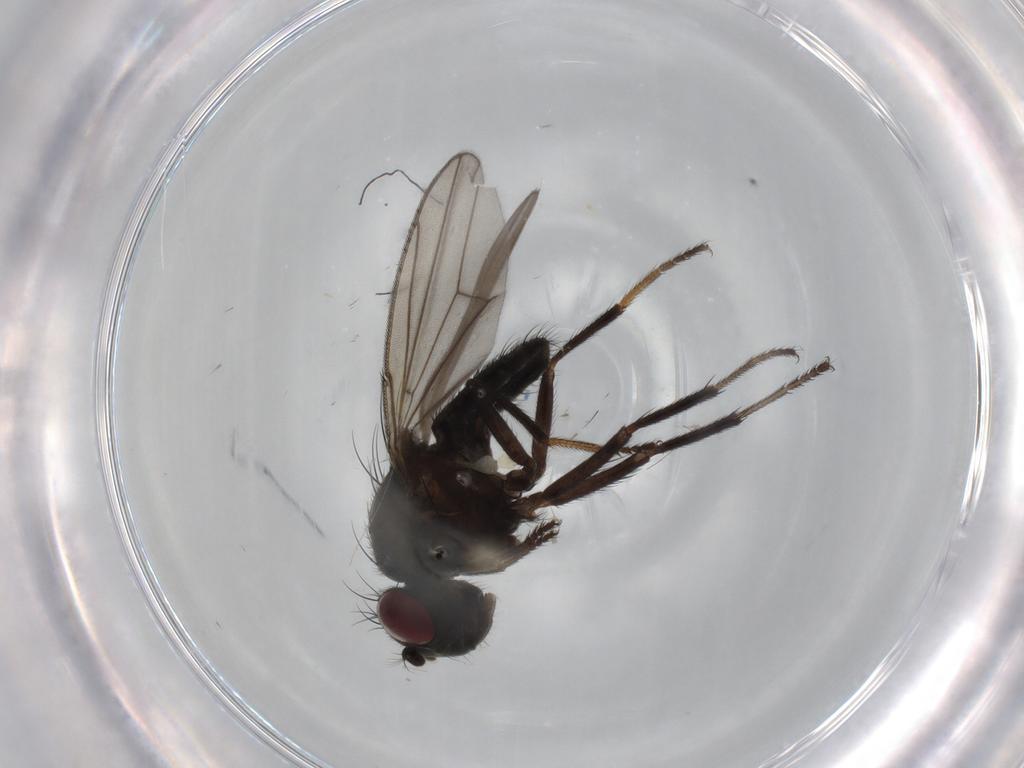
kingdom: Animalia
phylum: Arthropoda
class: Insecta
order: Diptera
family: Ephydridae
